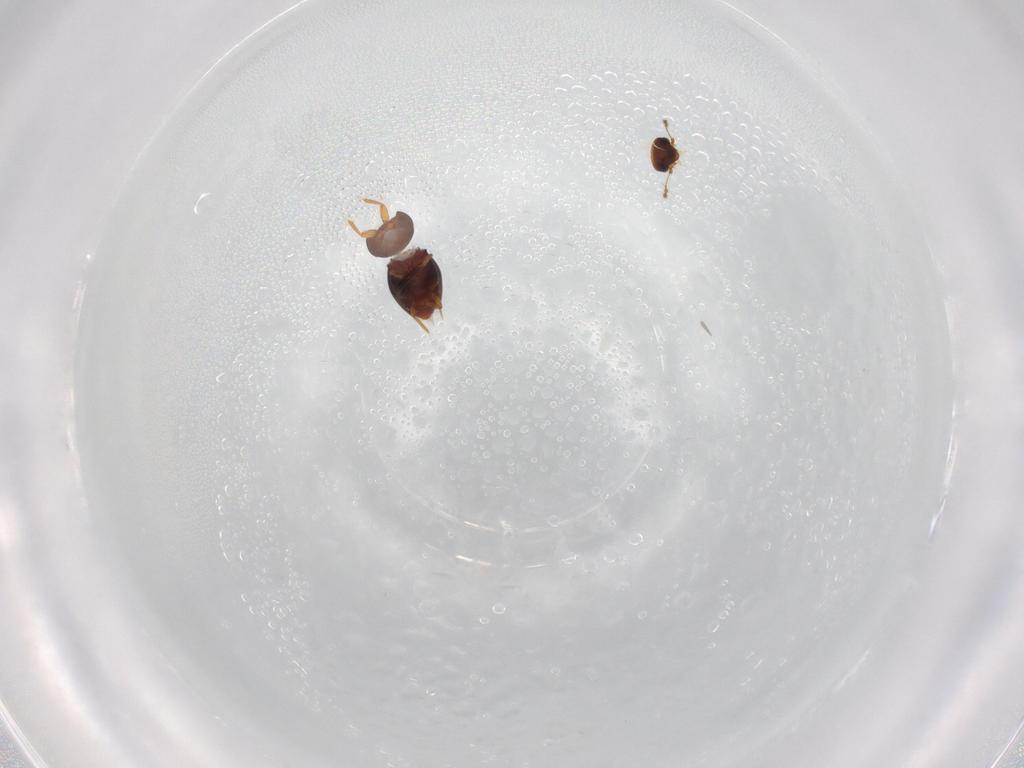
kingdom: Animalia
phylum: Arthropoda
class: Insecta
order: Coleoptera
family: Ptiliidae
